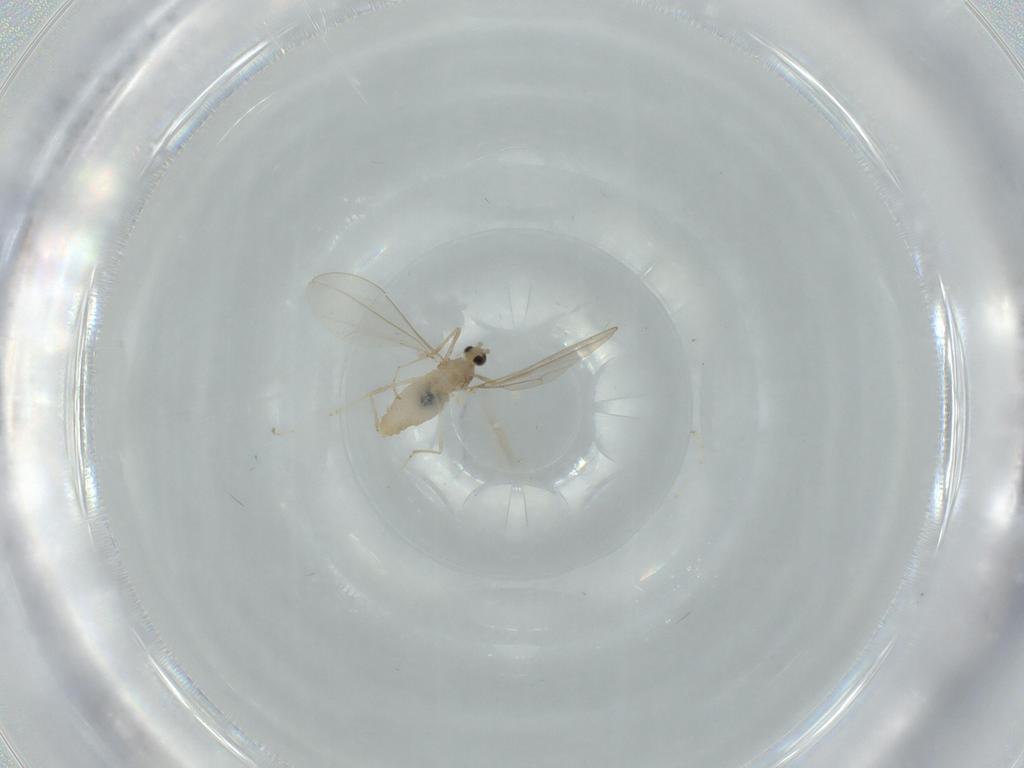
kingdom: Animalia
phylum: Arthropoda
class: Insecta
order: Diptera
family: Cecidomyiidae
